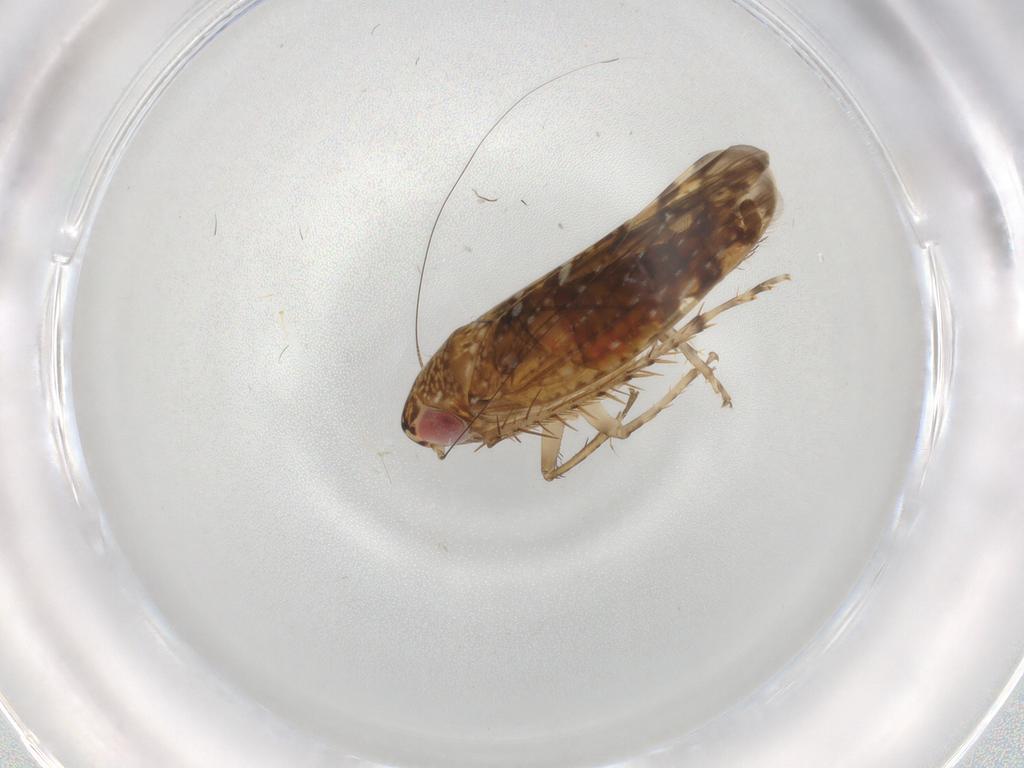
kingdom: Animalia
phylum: Arthropoda
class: Insecta
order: Hemiptera
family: Cicadellidae
